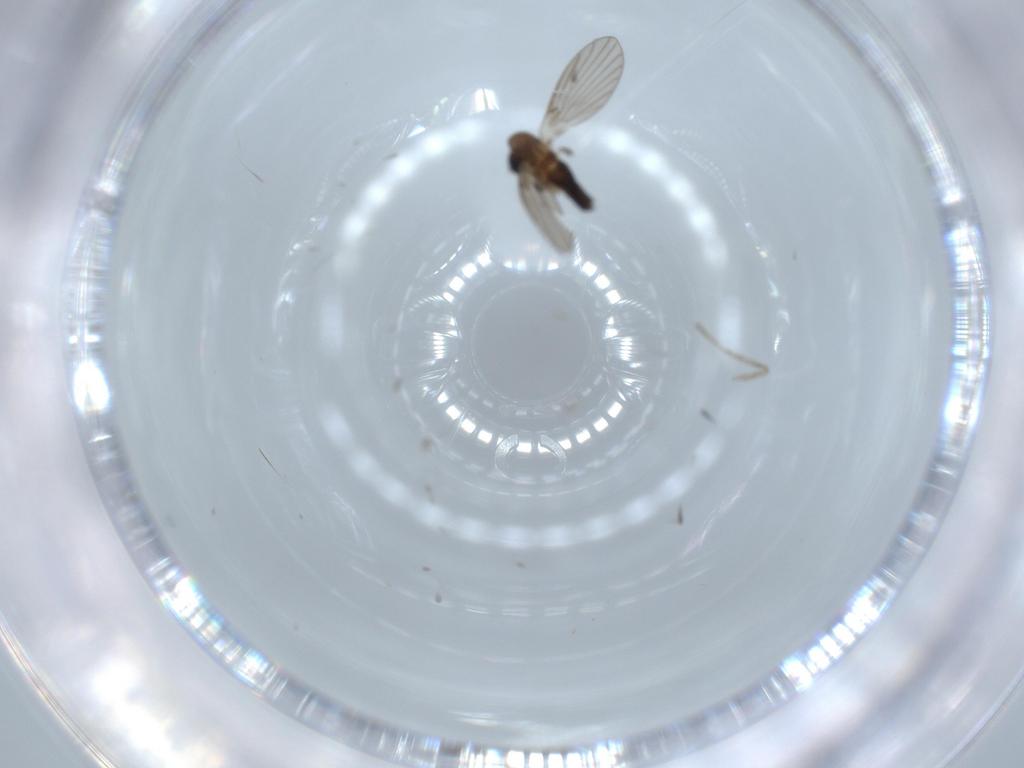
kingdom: Animalia
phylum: Arthropoda
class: Insecta
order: Diptera
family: Psychodidae
